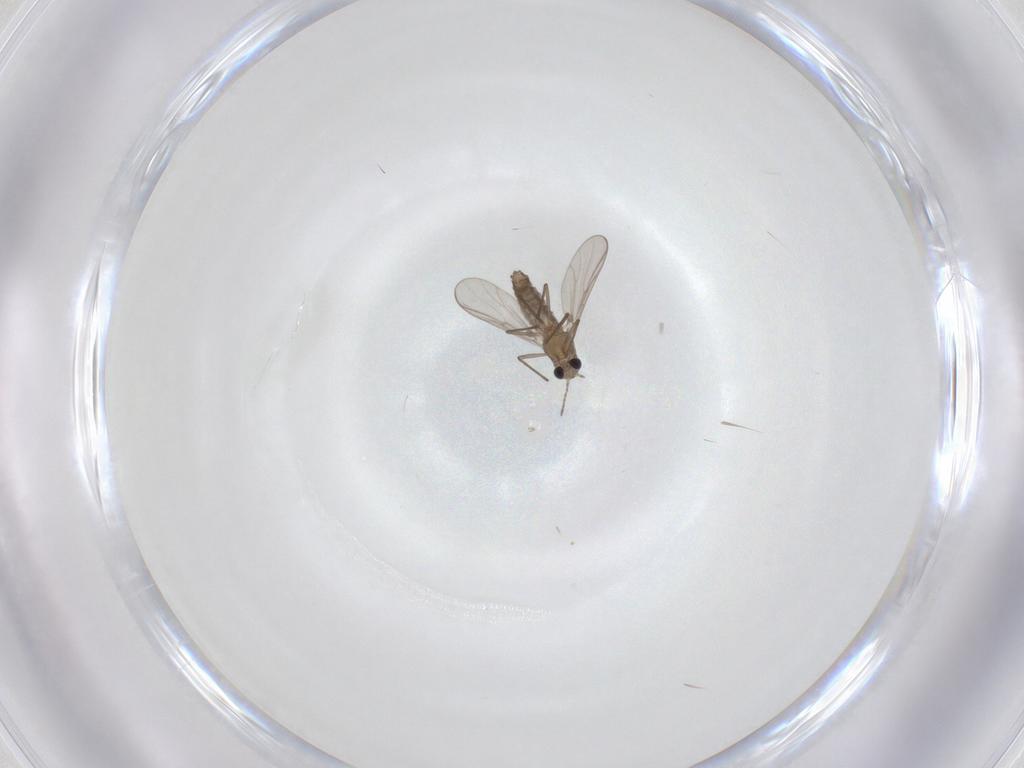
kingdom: Animalia
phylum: Arthropoda
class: Insecta
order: Diptera
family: Chironomidae
